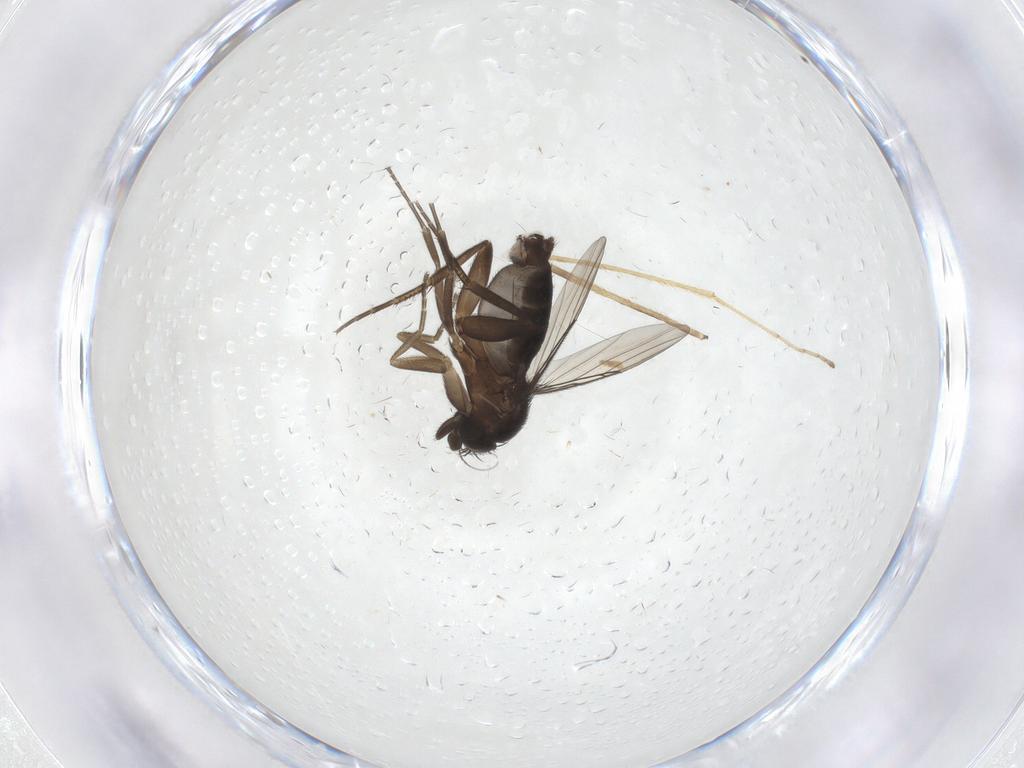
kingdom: Animalia
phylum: Arthropoda
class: Insecta
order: Diptera
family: Phoridae
